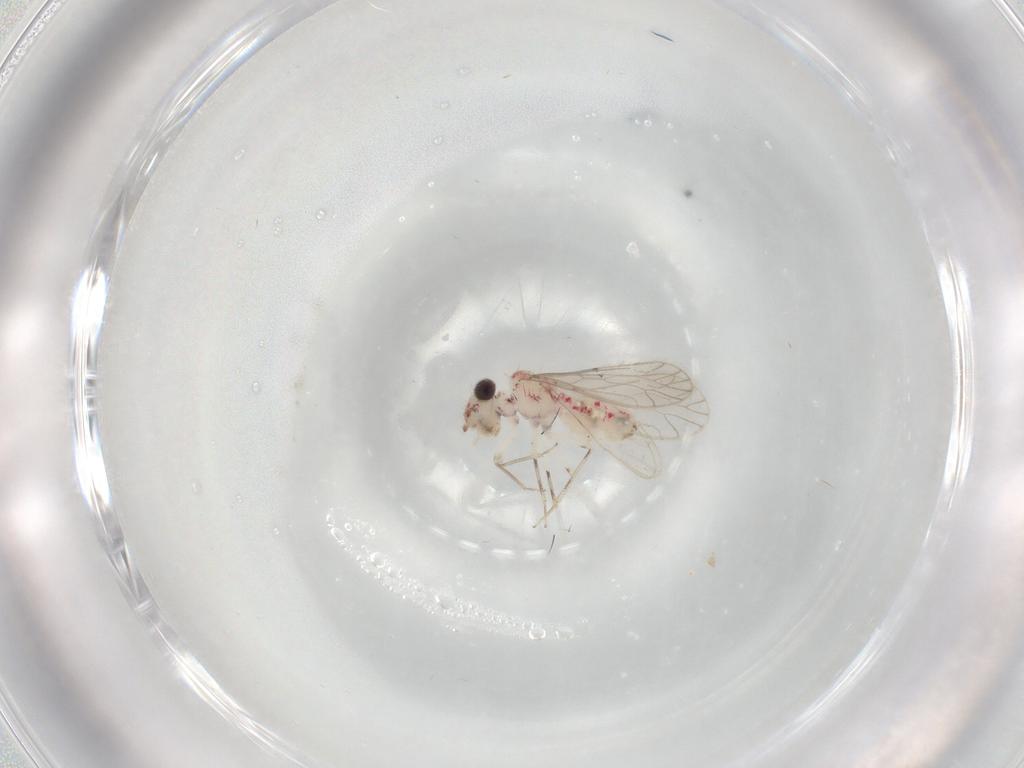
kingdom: Animalia
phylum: Arthropoda
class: Insecta
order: Psocodea
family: Caeciliusidae
